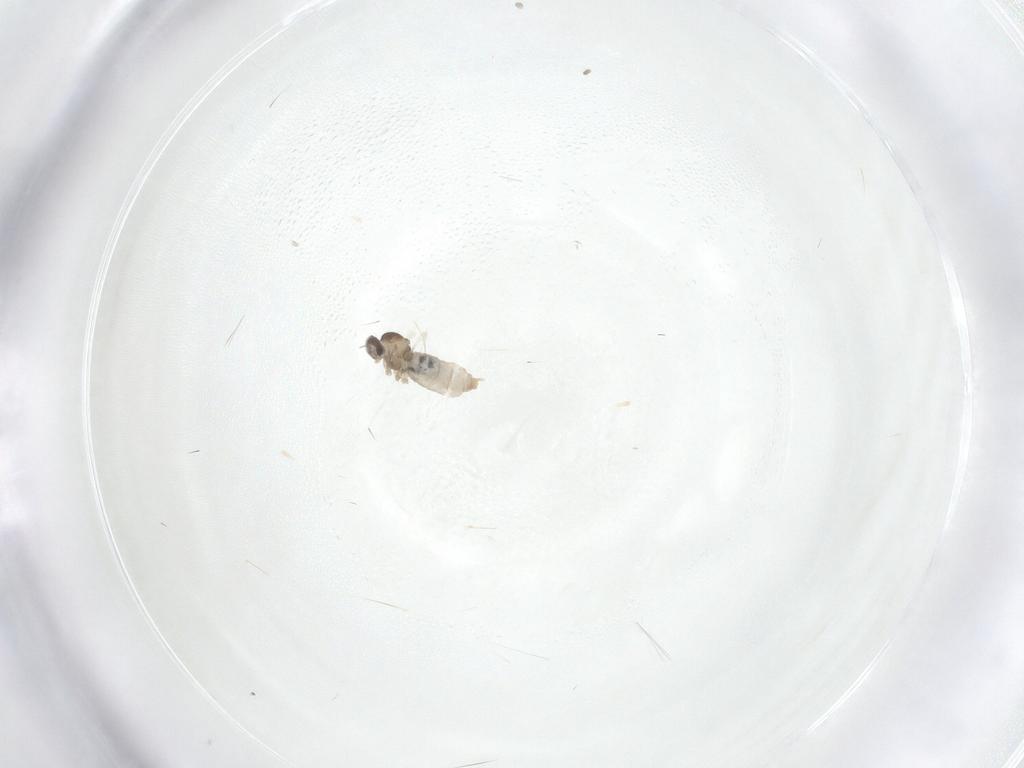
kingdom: Animalia
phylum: Arthropoda
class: Insecta
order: Diptera
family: Cecidomyiidae
